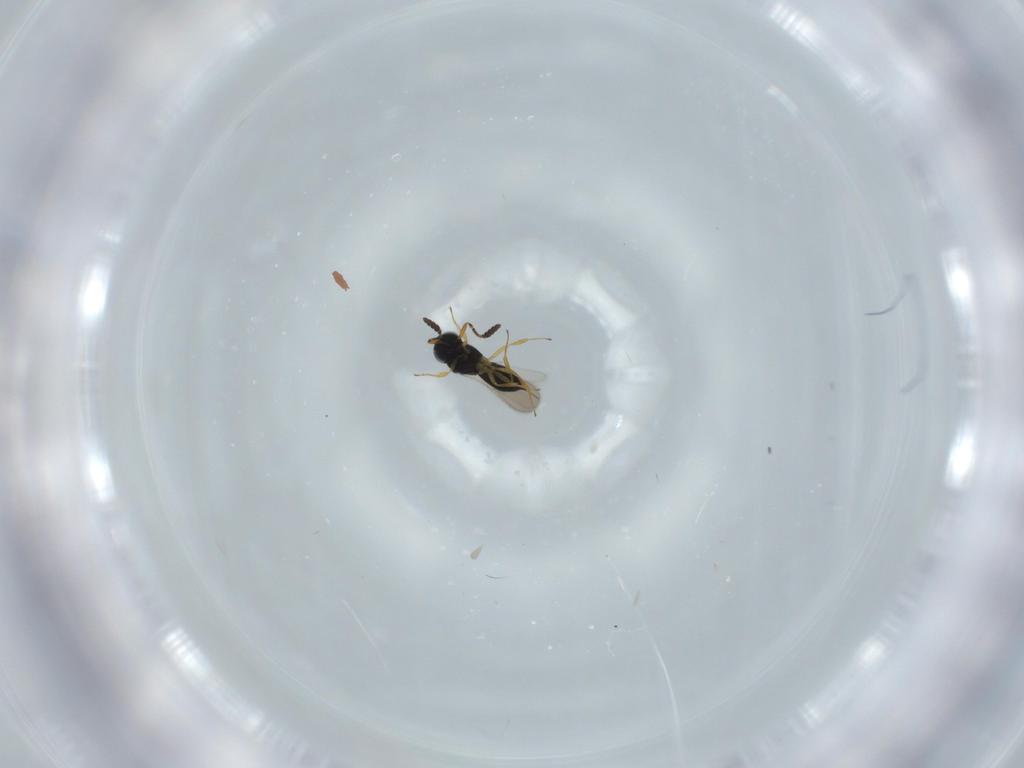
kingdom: Animalia
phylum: Arthropoda
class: Insecta
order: Hymenoptera
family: Scelionidae
